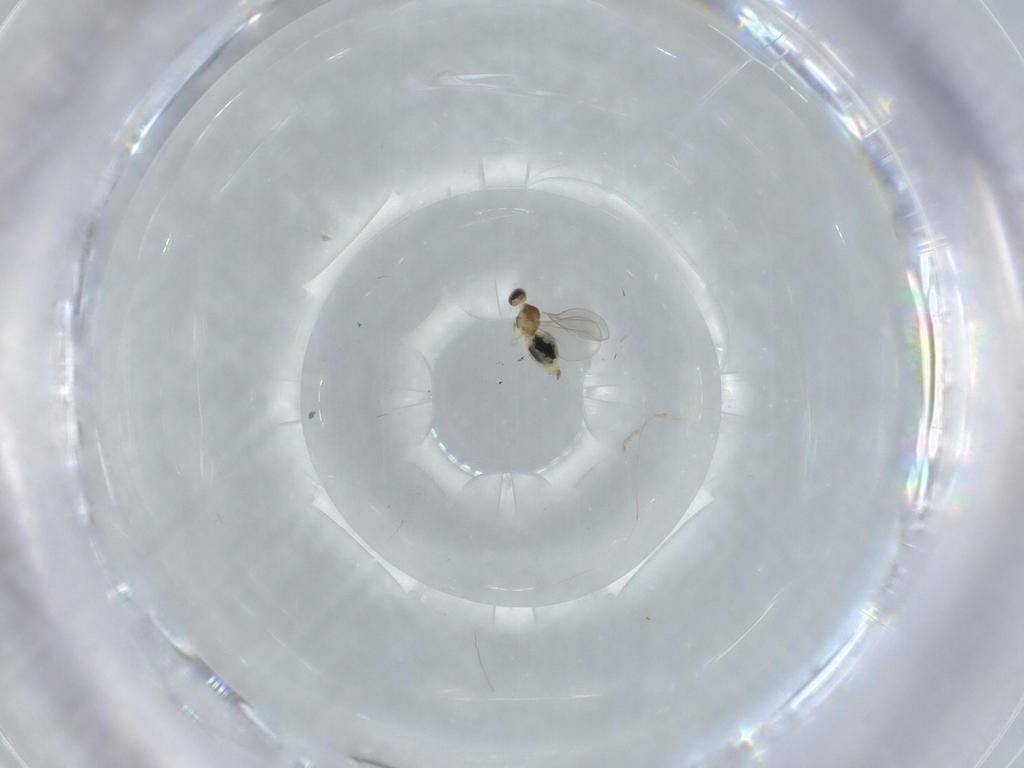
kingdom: Animalia
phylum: Arthropoda
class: Insecta
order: Diptera
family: Cecidomyiidae
